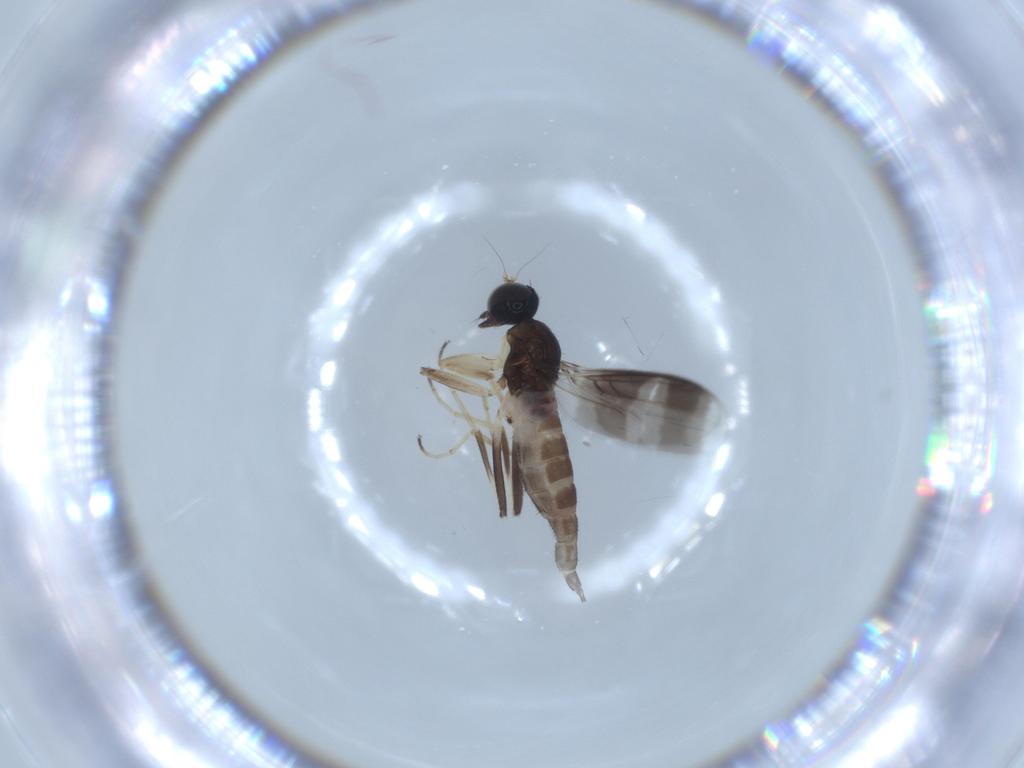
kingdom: Animalia
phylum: Arthropoda
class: Insecta
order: Diptera
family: Hybotidae
